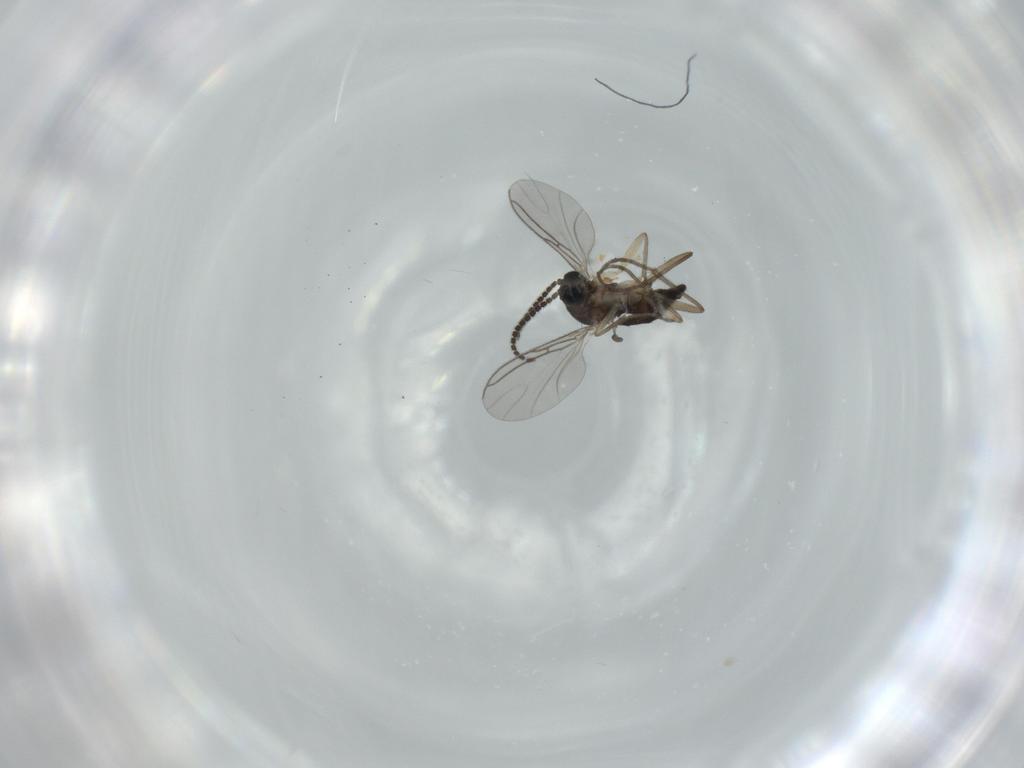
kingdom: Animalia
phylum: Arthropoda
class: Insecta
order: Diptera
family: Sciaridae
